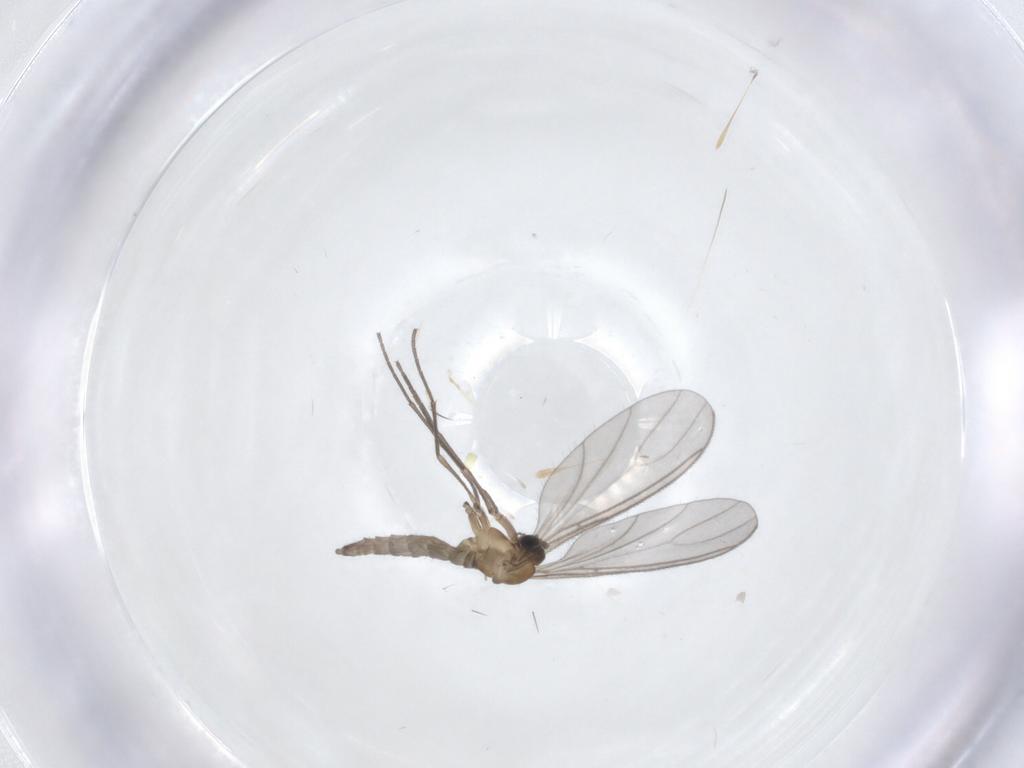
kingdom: Animalia
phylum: Arthropoda
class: Insecta
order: Diptera
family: Sciaridae
